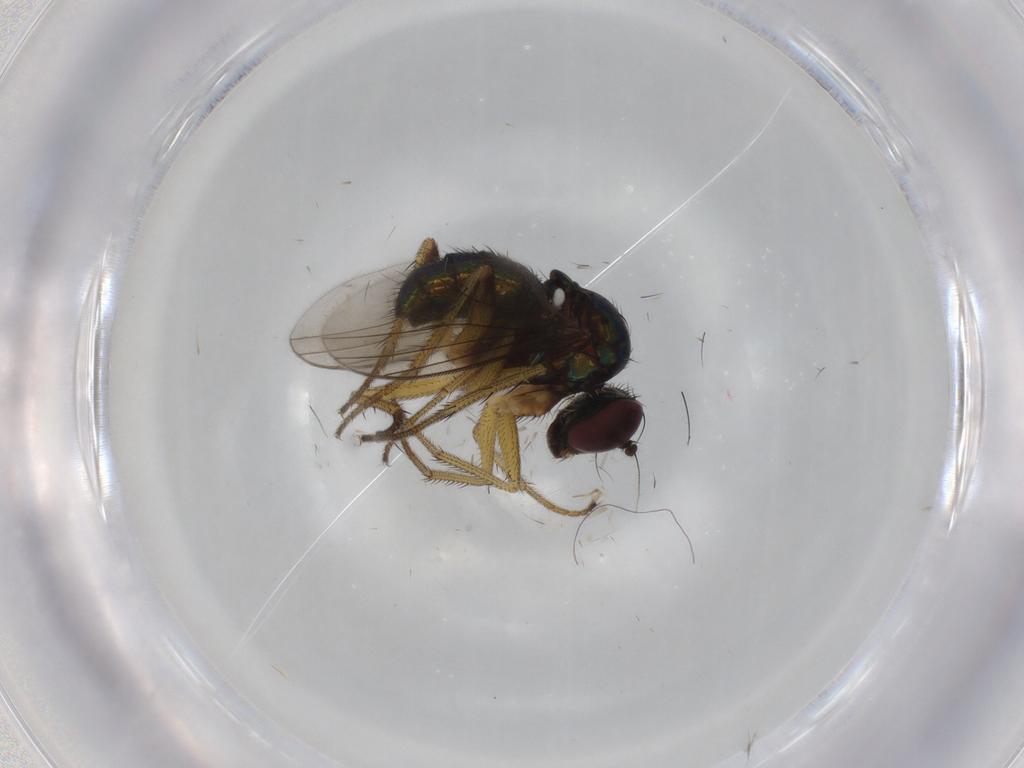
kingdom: Animalia
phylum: Arthropoda
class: Insecta
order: Diptera
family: Dolichopodidae
